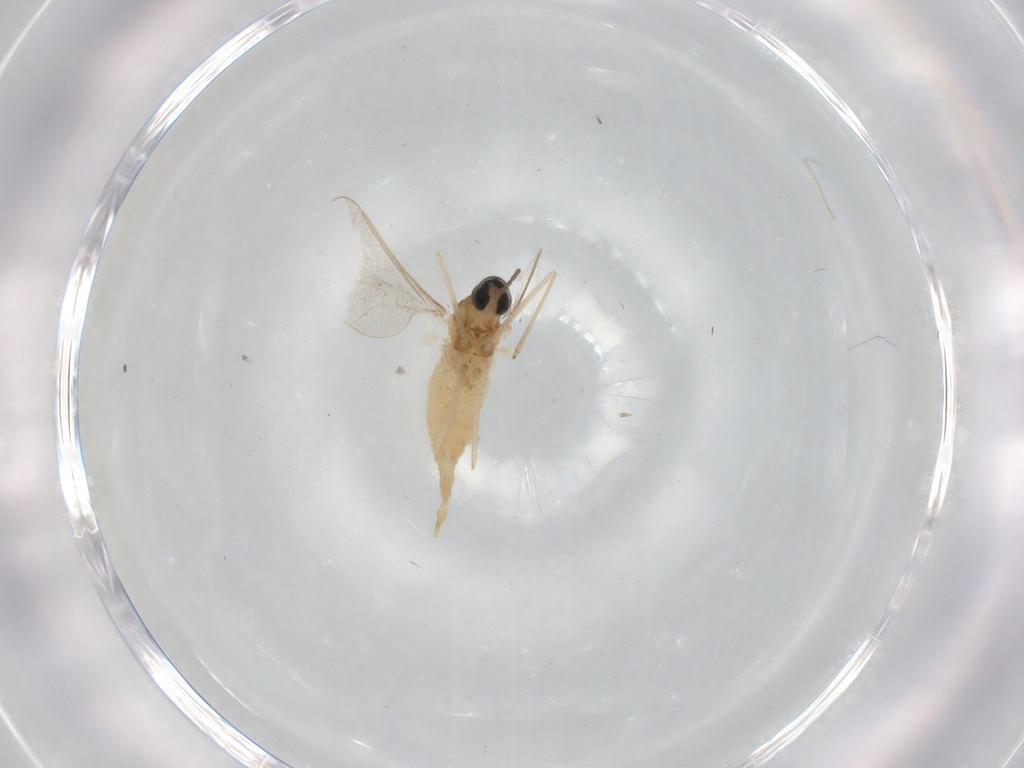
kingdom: Animalia
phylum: Arthropoda
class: Insecta
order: Diptera
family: Cecidomyiidae
